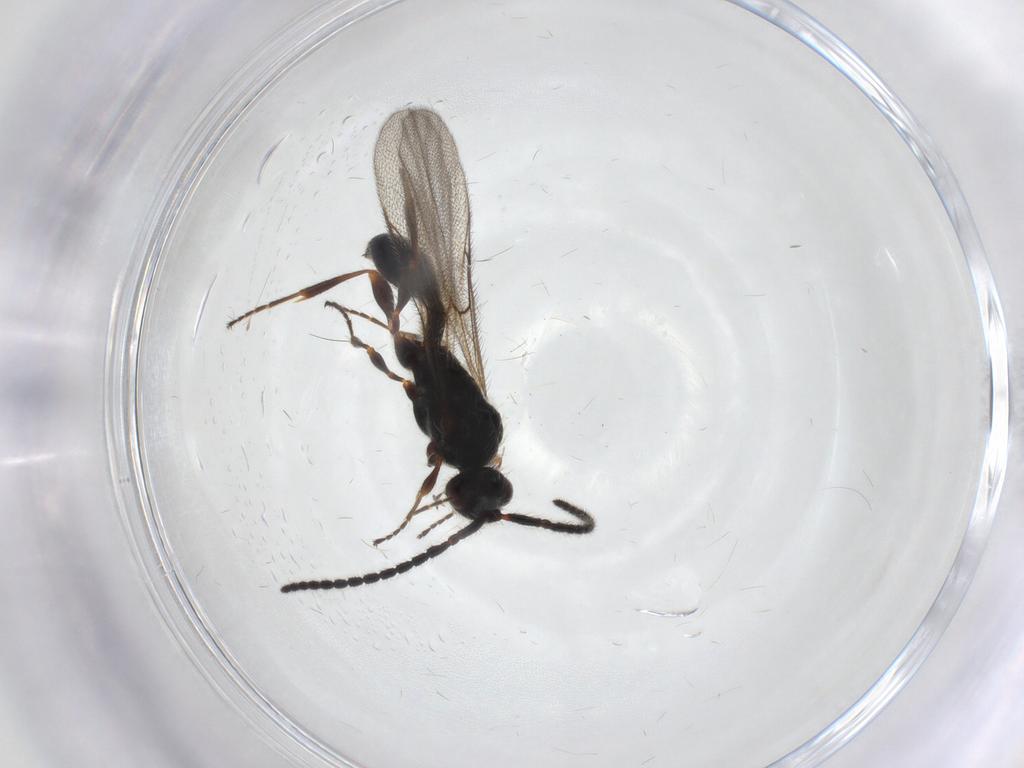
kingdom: Animalia
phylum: Arthropoda
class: Insecta
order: Hymenoptera
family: Diapriidae
